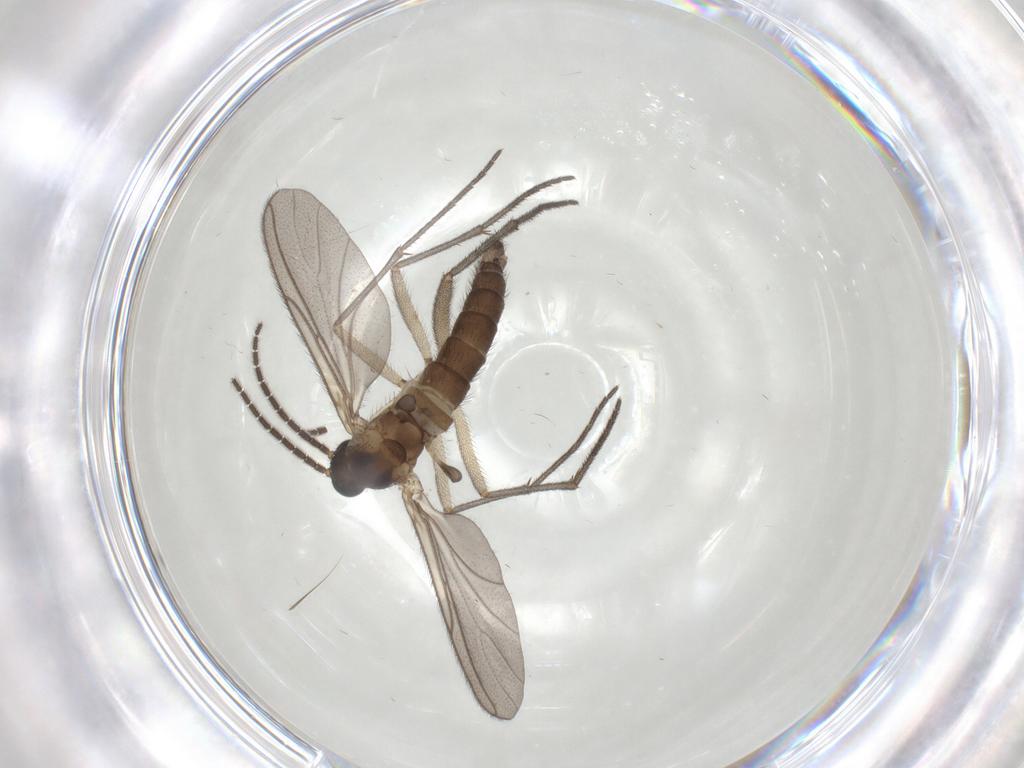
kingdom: Animalia
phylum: Arthropoda
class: Insecta
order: Diptera
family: Sciaridae
